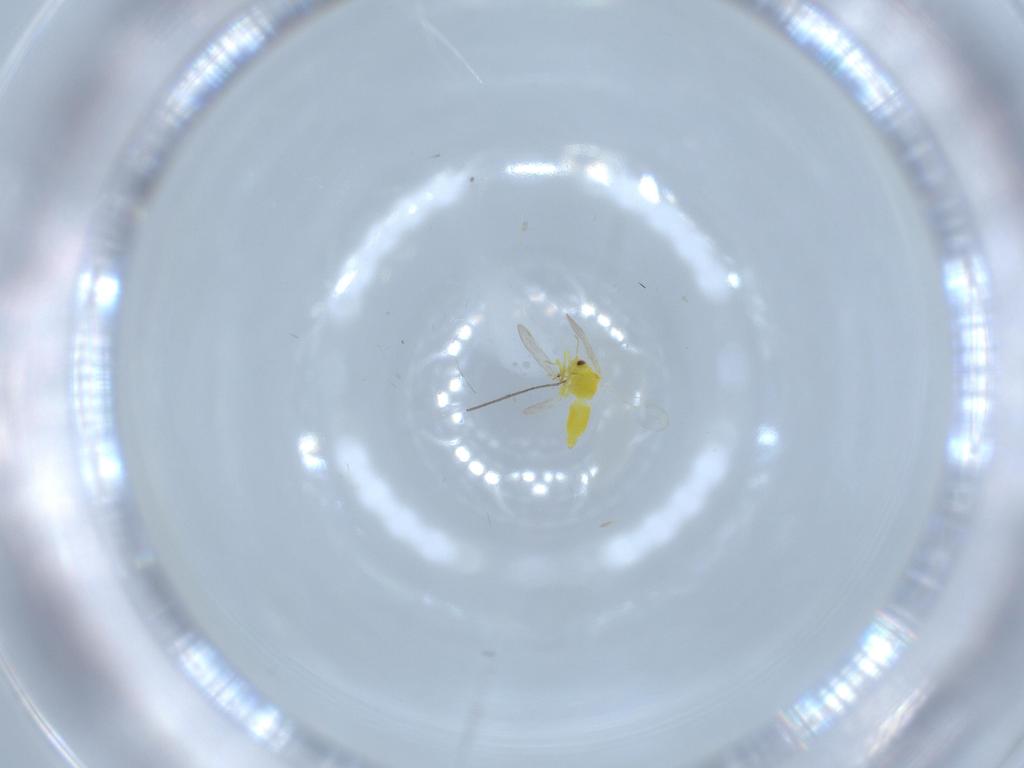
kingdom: Animalia
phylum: Arthropoda
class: Insecta
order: Hemiptera
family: Aleyrodidae
